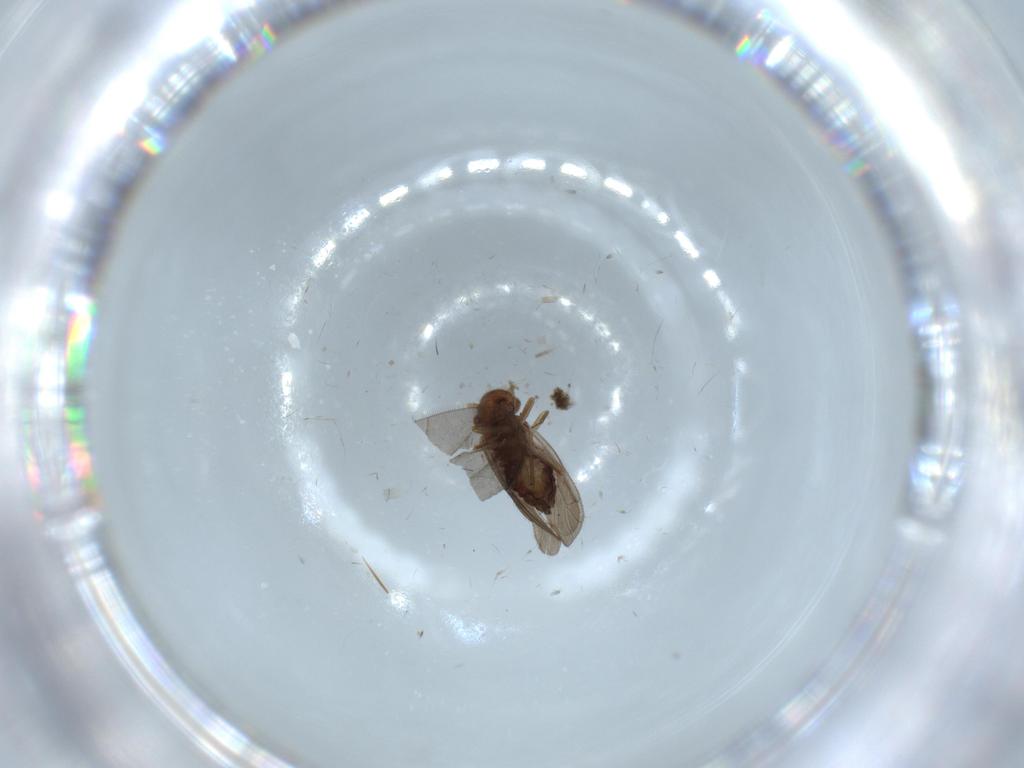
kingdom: Animalia
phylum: Arthropoda
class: Insecta
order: Psocodea
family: Ectopsocidae
